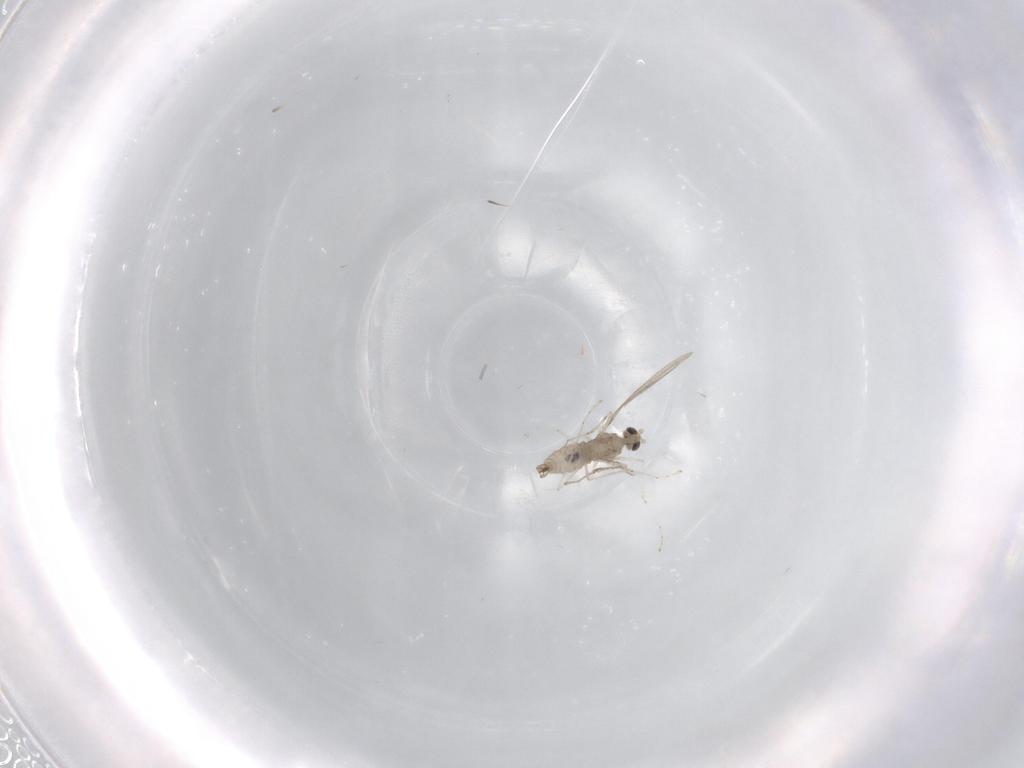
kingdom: Animalia
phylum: Arthropoda
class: Insecta
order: Diptera
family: Cecidomyiidae
